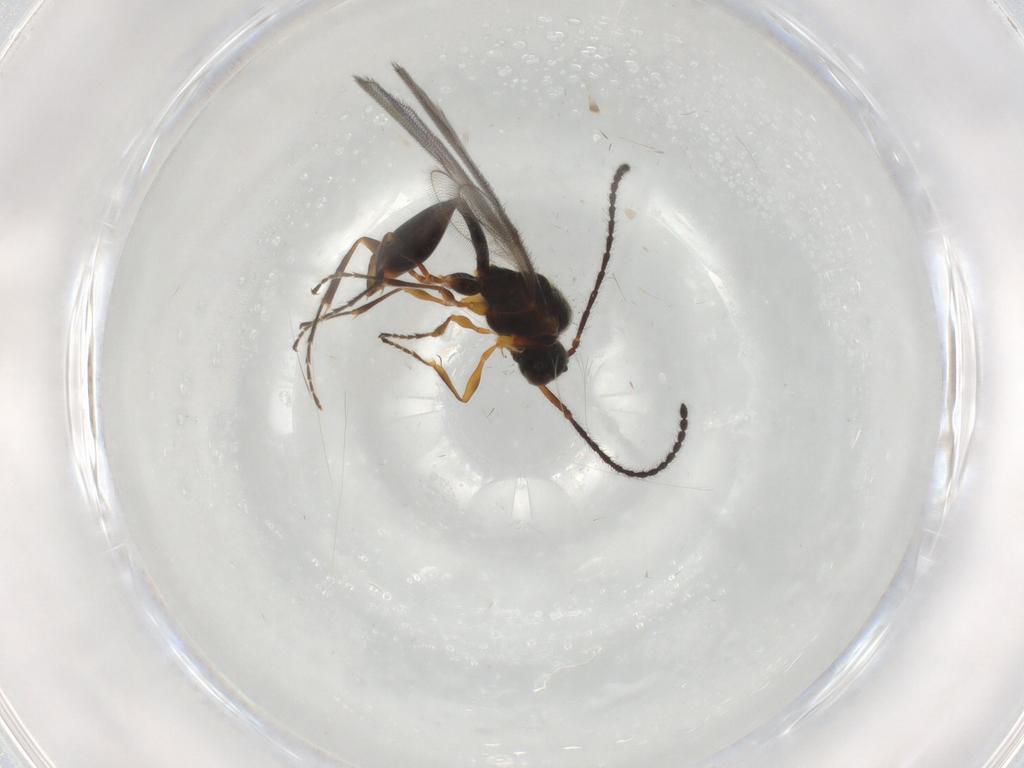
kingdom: Animalia
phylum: Arthropoda
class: Insecta
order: Hymenoptera
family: Diapriidae
